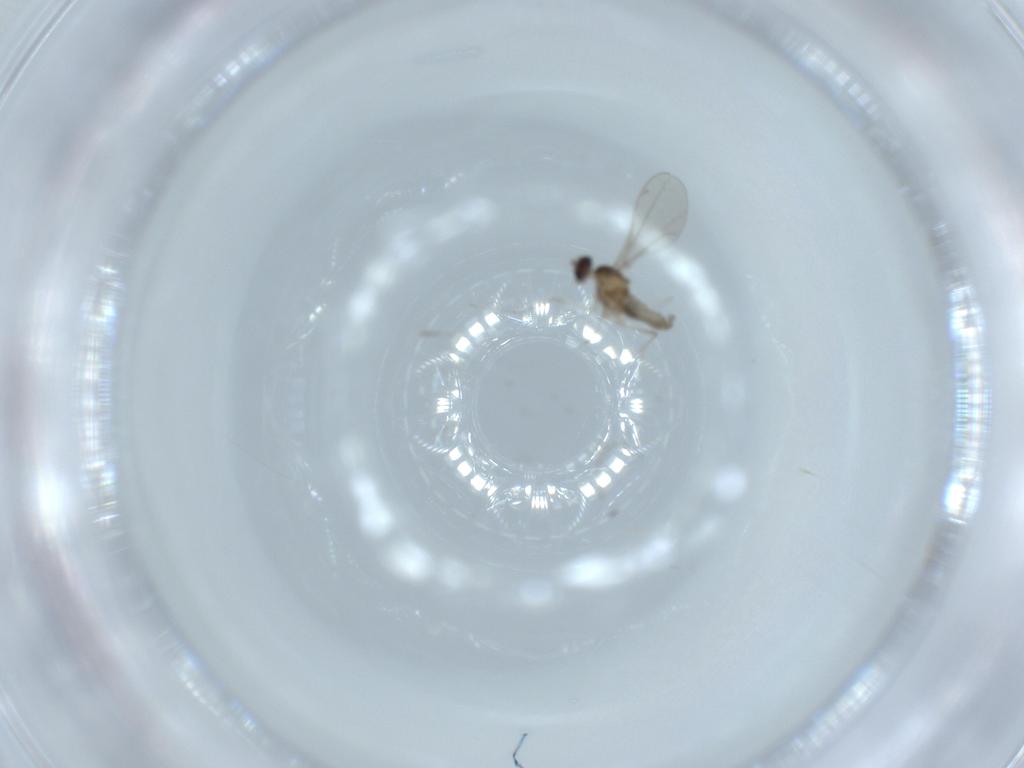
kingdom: Animalia
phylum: Arthropoda
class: Insecta
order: Diptera
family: Cecidomyiidae
